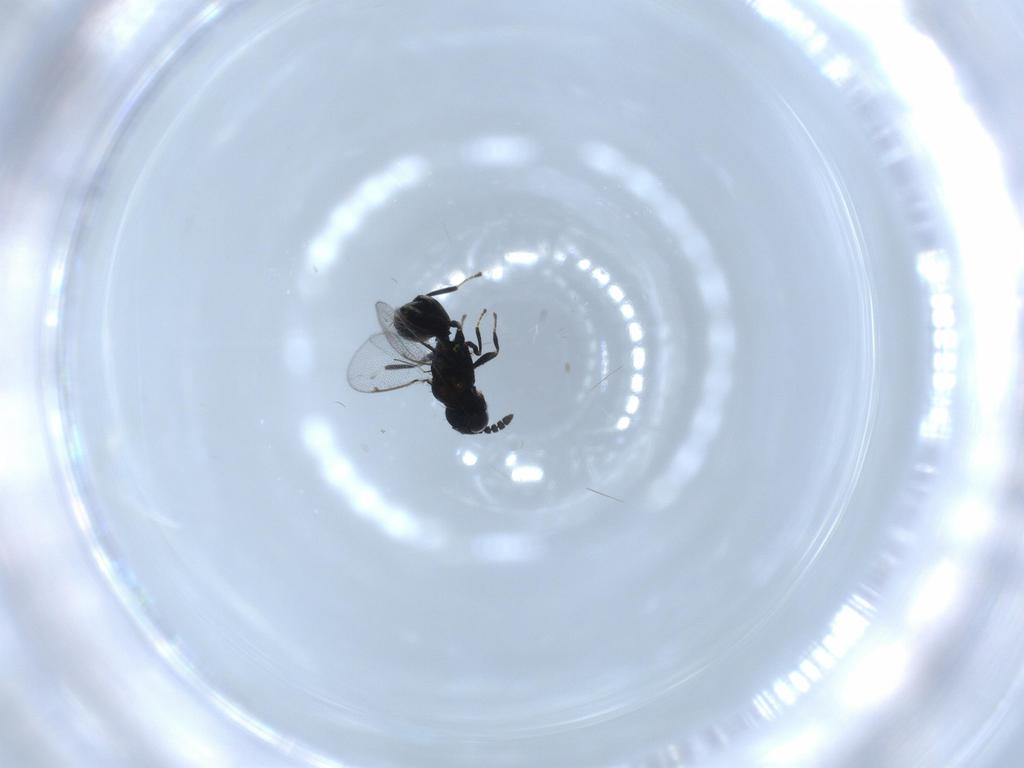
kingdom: Animalia
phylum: Arthropoda
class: Insecta
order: Hymenoptera
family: Eulophidae
